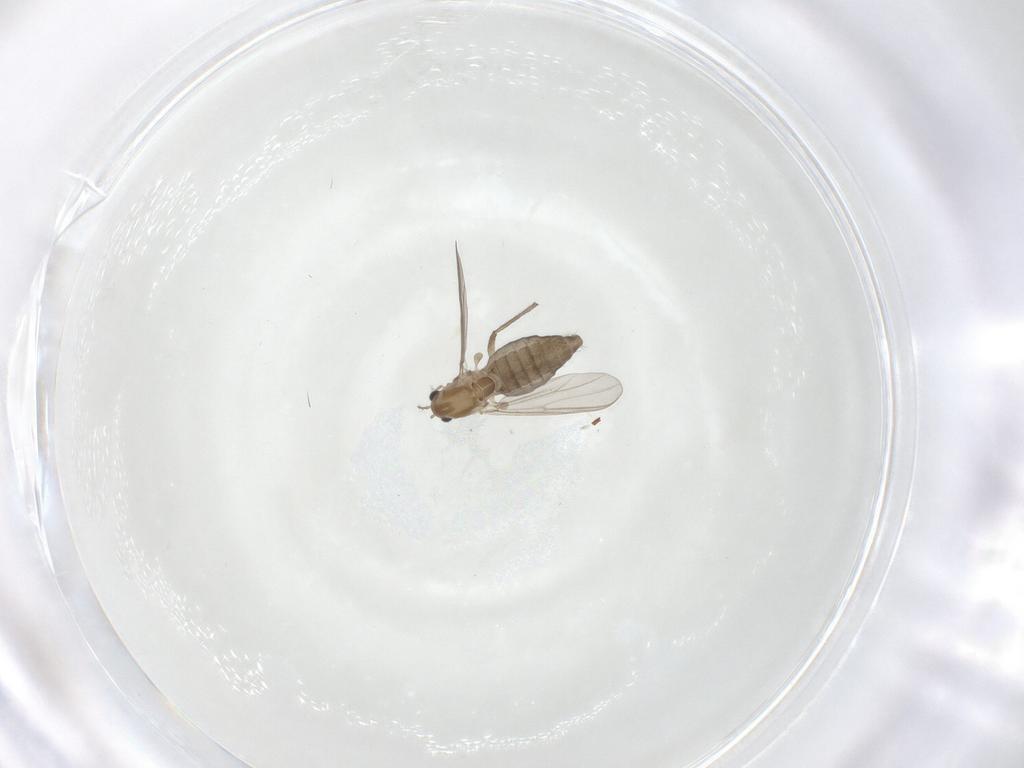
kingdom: Animalia
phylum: Arthropoda
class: Insecta
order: Diptera
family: Chironomidae
